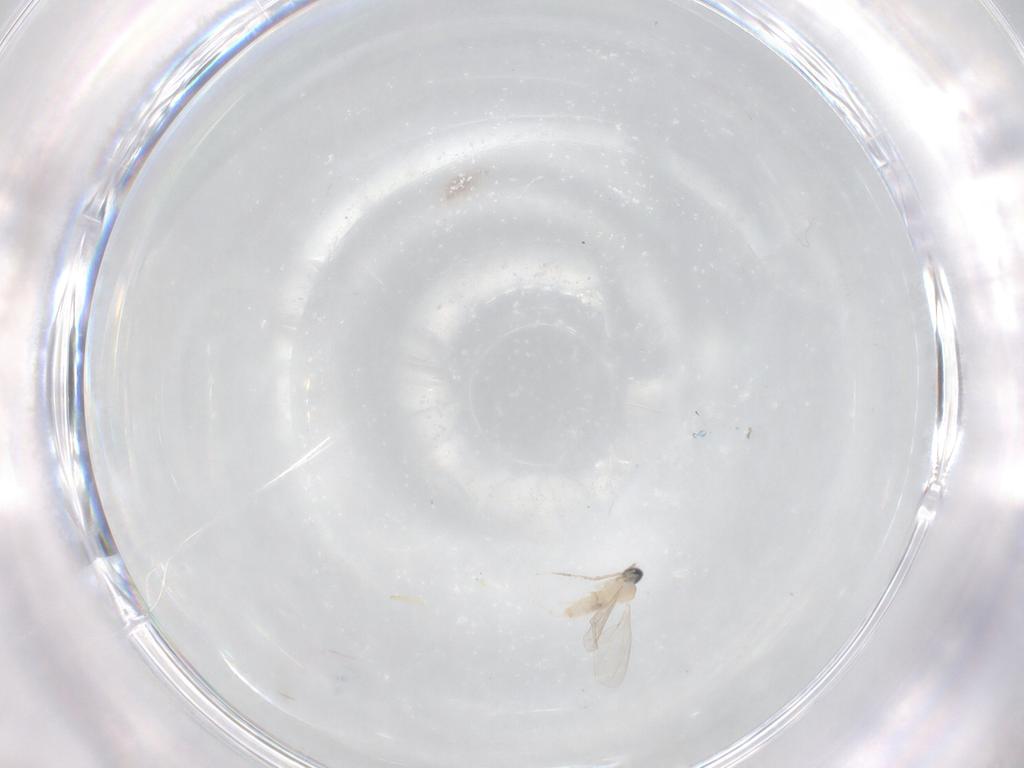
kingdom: Animalia
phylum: Arthropoda
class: Insecta
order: Diptera
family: Cecidomyiidae
